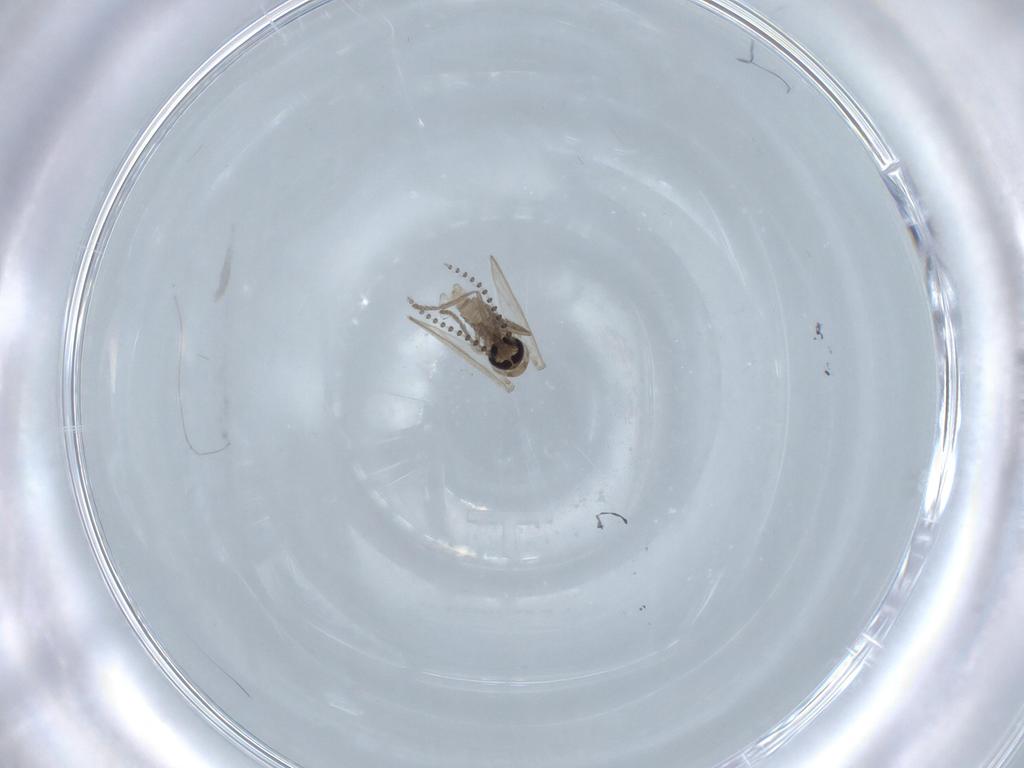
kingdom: Animalia
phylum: Arthropoda
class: Insecta
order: Diptera
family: Psychodidae
